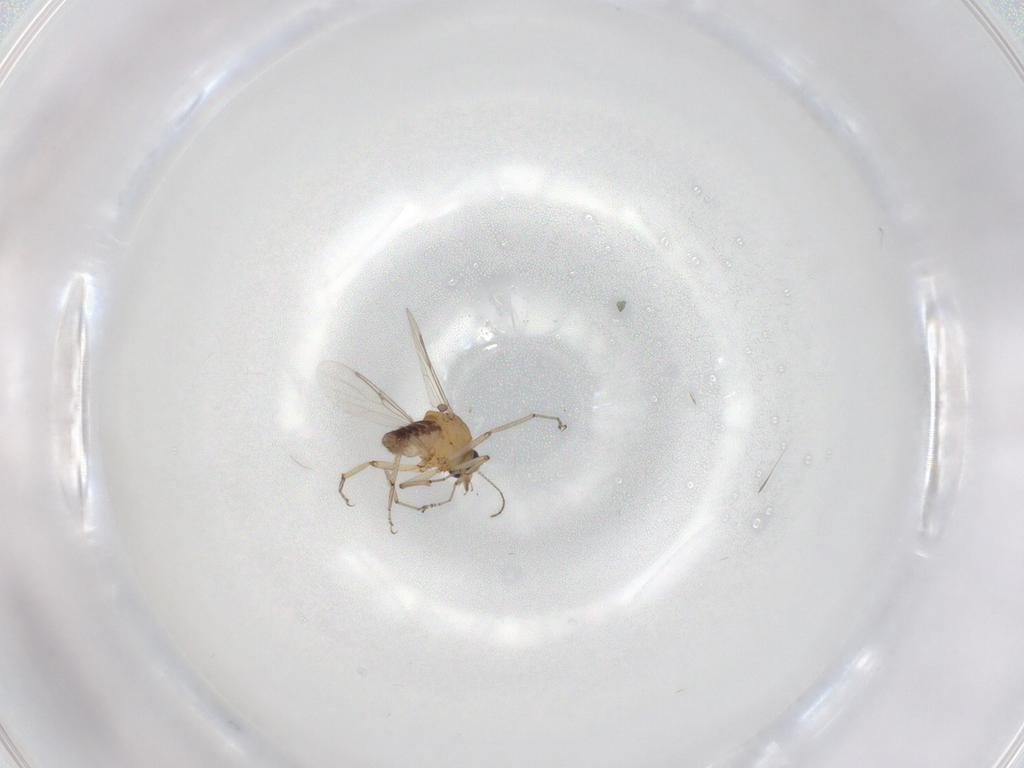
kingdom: Animalia
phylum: Arthropoda
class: Insecta
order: Diptera
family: Ceratopogonidae
